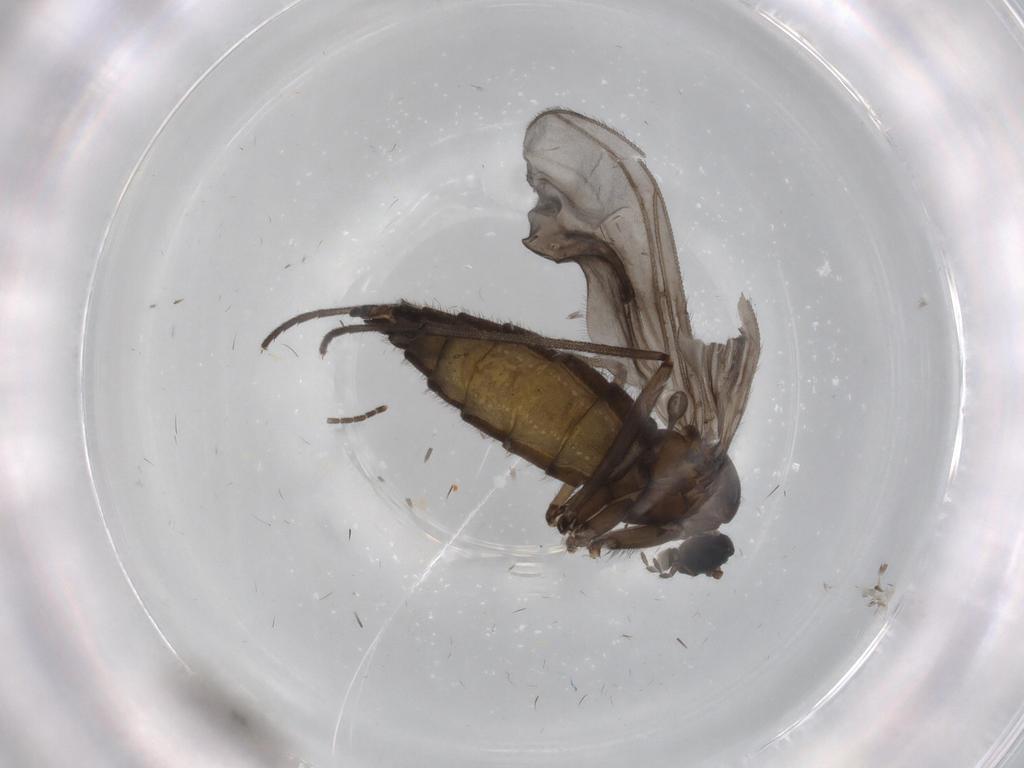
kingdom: Animalia
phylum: Arthropoda
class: Insecta
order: Diptera
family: Sciaridae
